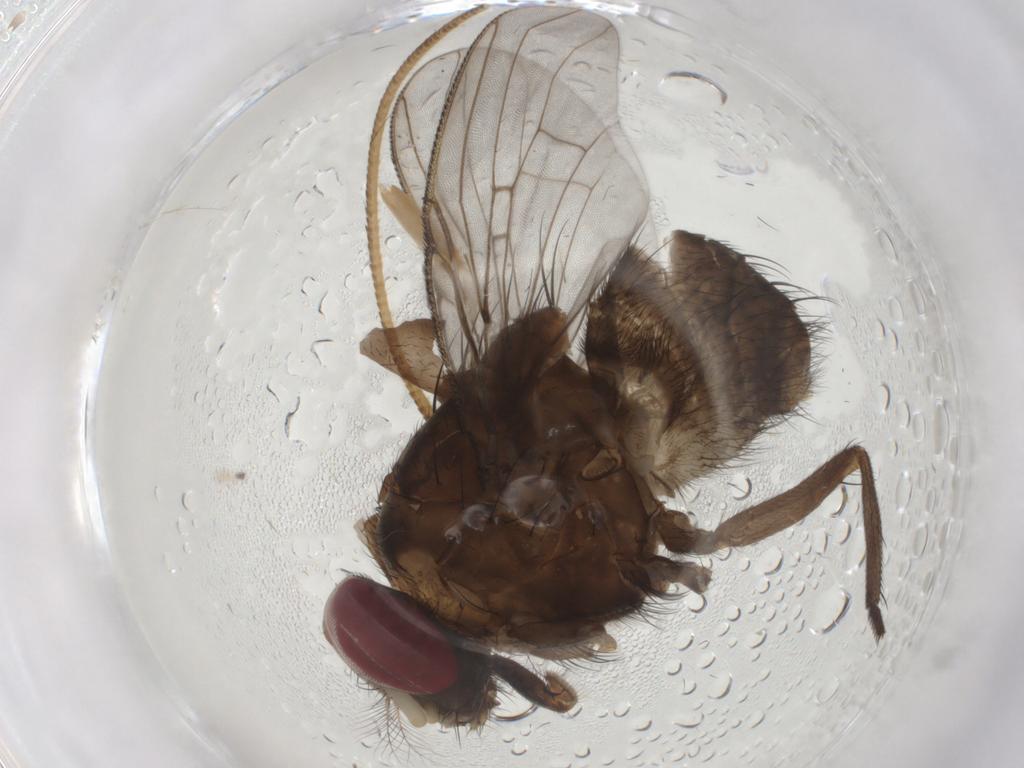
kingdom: Animalia
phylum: Arthropoda
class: Insecta
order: Diptera
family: Muscidae
